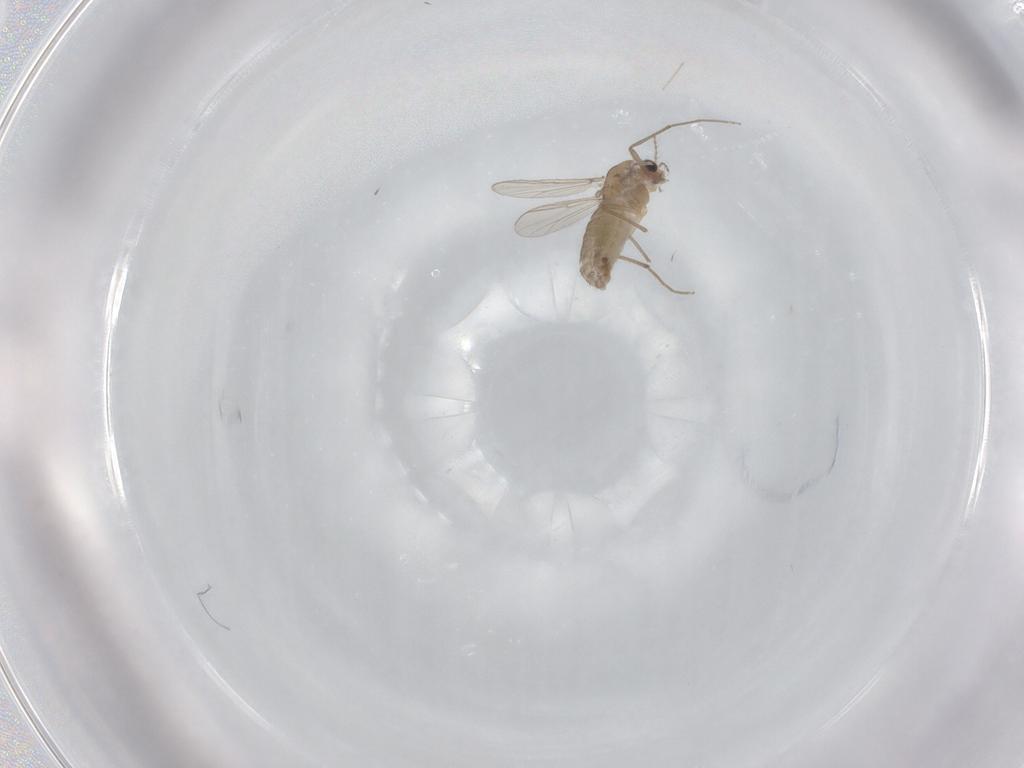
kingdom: Animalia
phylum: Arthropoda
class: Insecta
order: Diptera
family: Chironomidae
